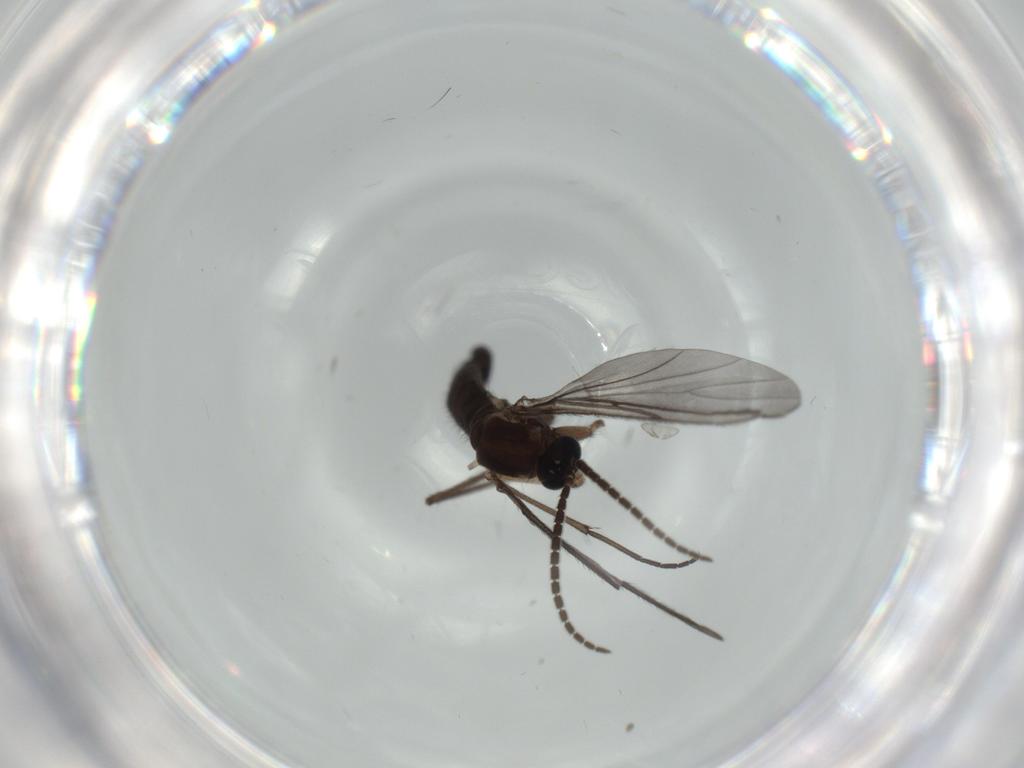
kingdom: Animalia
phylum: Arthropoda
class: Insecta
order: Diptera
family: Sciaridae
